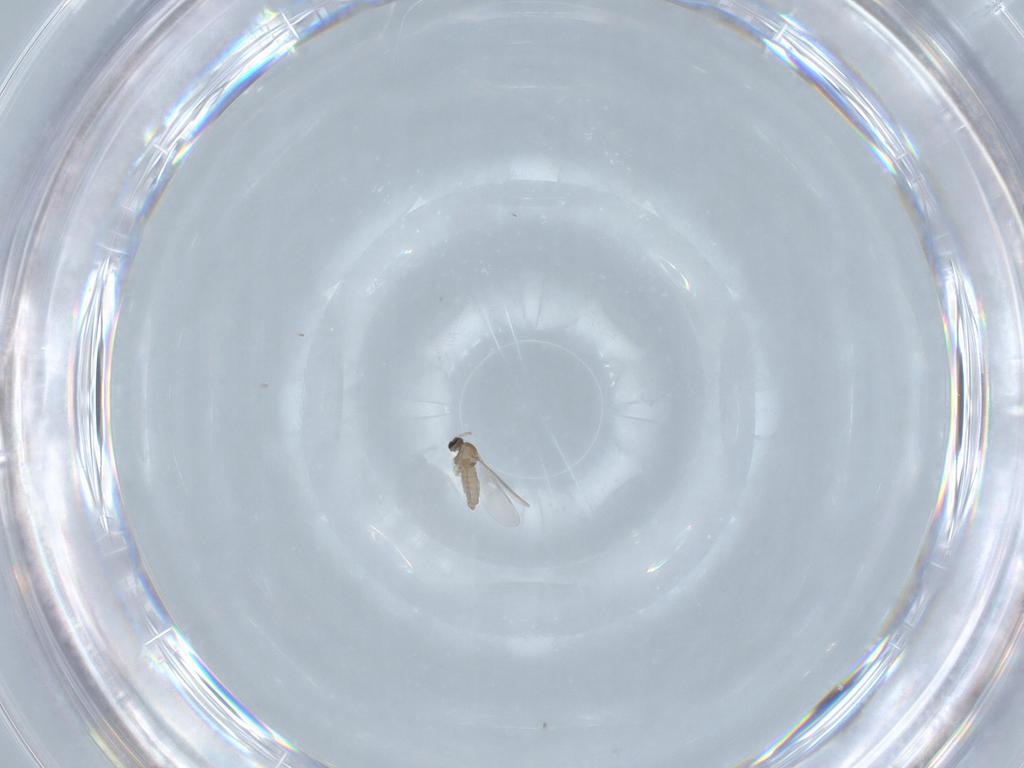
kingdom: Animalia
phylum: Arthropoda
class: Insecta
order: Diptera
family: Cecidomyiidae
